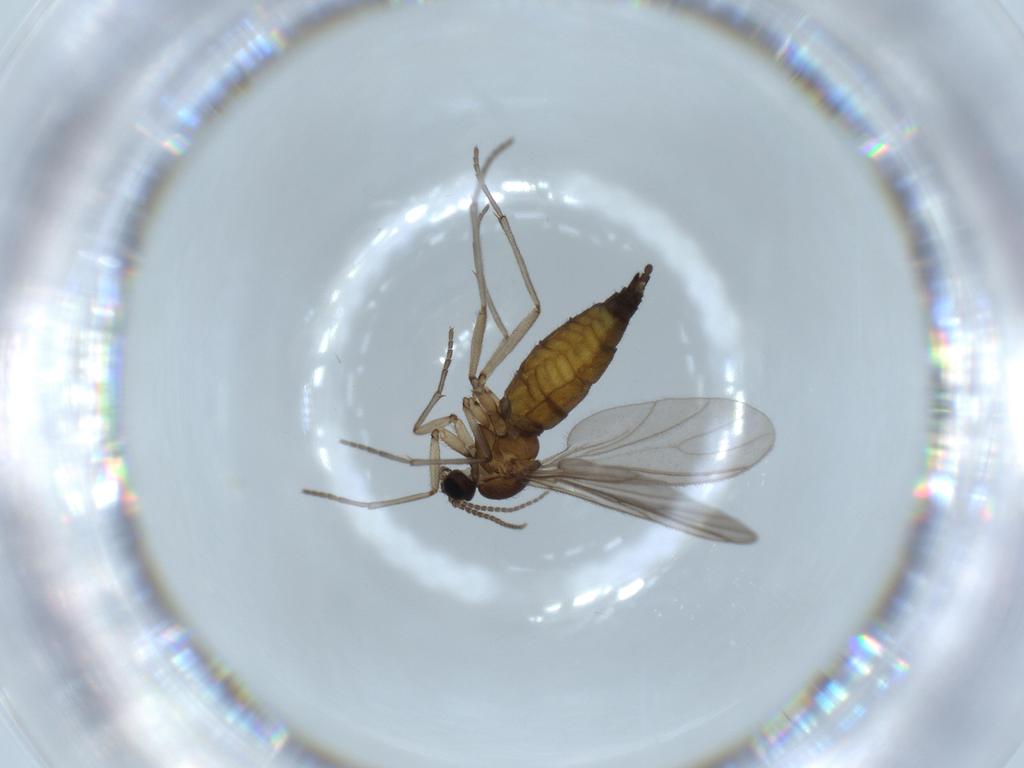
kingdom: Animalia
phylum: Arthropoda
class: Insecta
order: Diptera
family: Sciaridae
